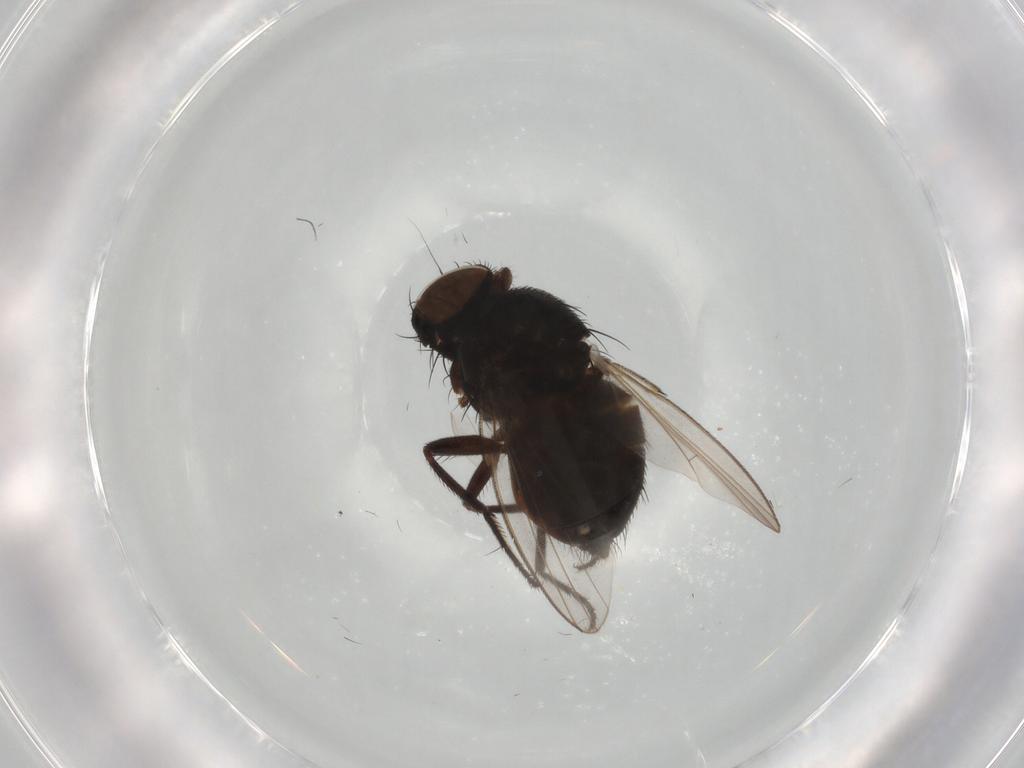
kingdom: Animalia
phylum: Arthropoda
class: Insecta
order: Diptera
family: Milichiidae
